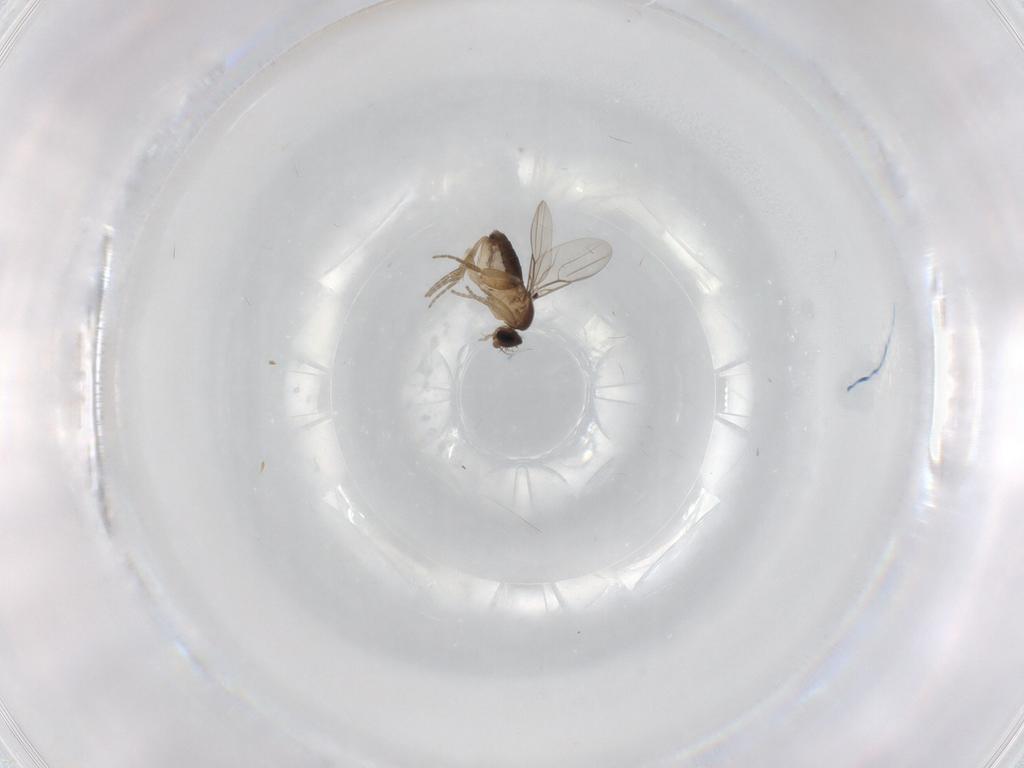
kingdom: Animalia
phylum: Arthropoda
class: Insecta
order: Diptera
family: Phoridae
